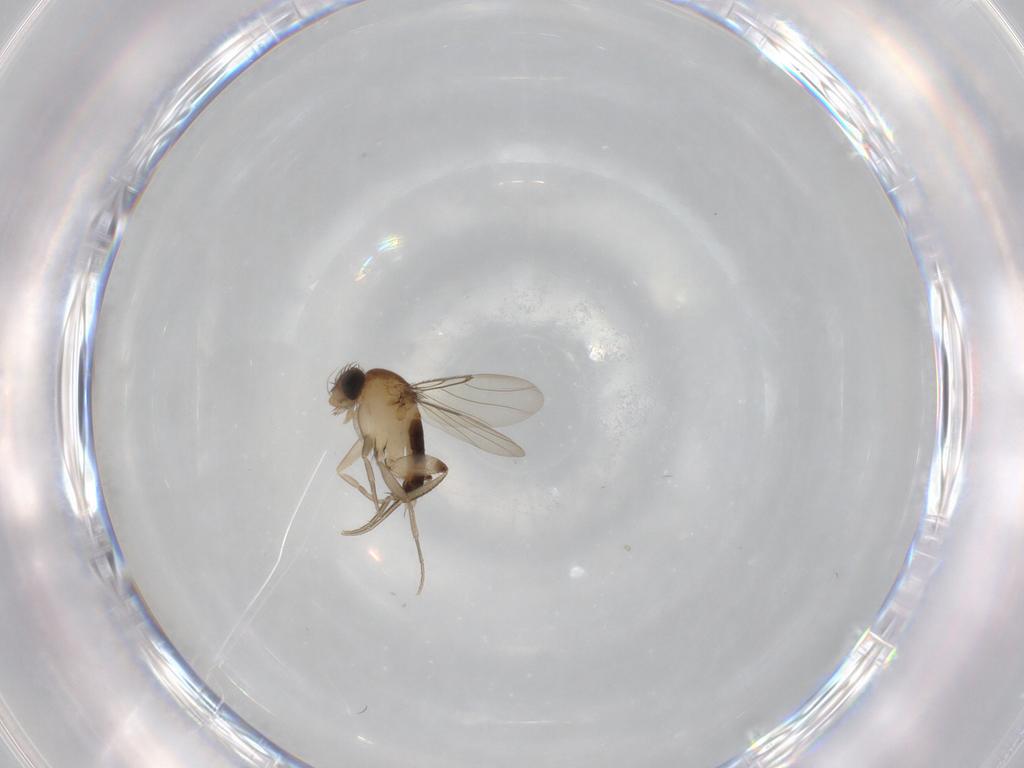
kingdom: Animalia
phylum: Arthropoda
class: Insecta
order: Diptera
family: Phoridae
